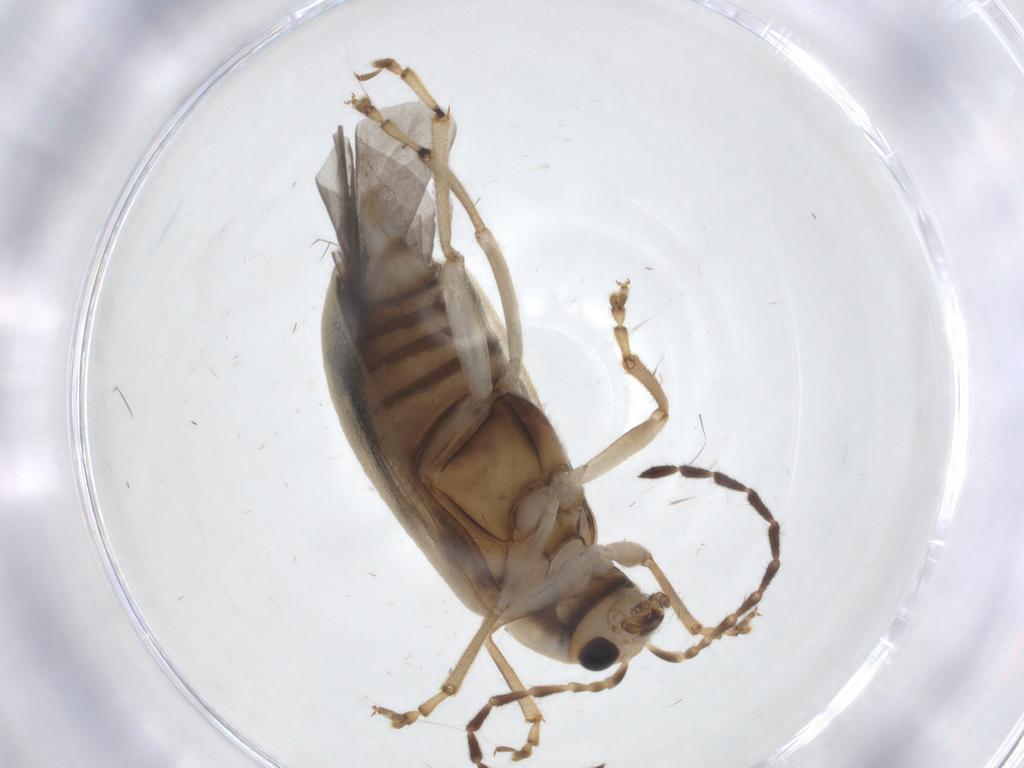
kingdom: Animalia
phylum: Arthropoda
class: Insecta
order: Coleoptera
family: Chrysomelidae
